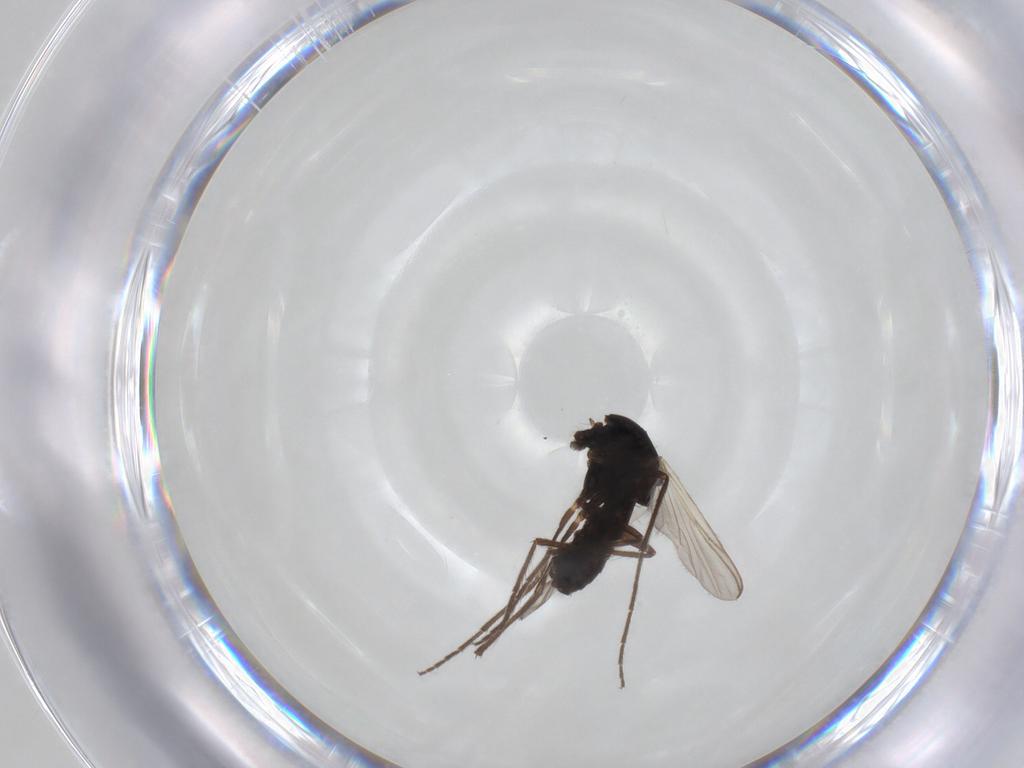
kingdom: Animalia
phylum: Arthropoda
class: Insecta
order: Diptera
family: Chironomidae
